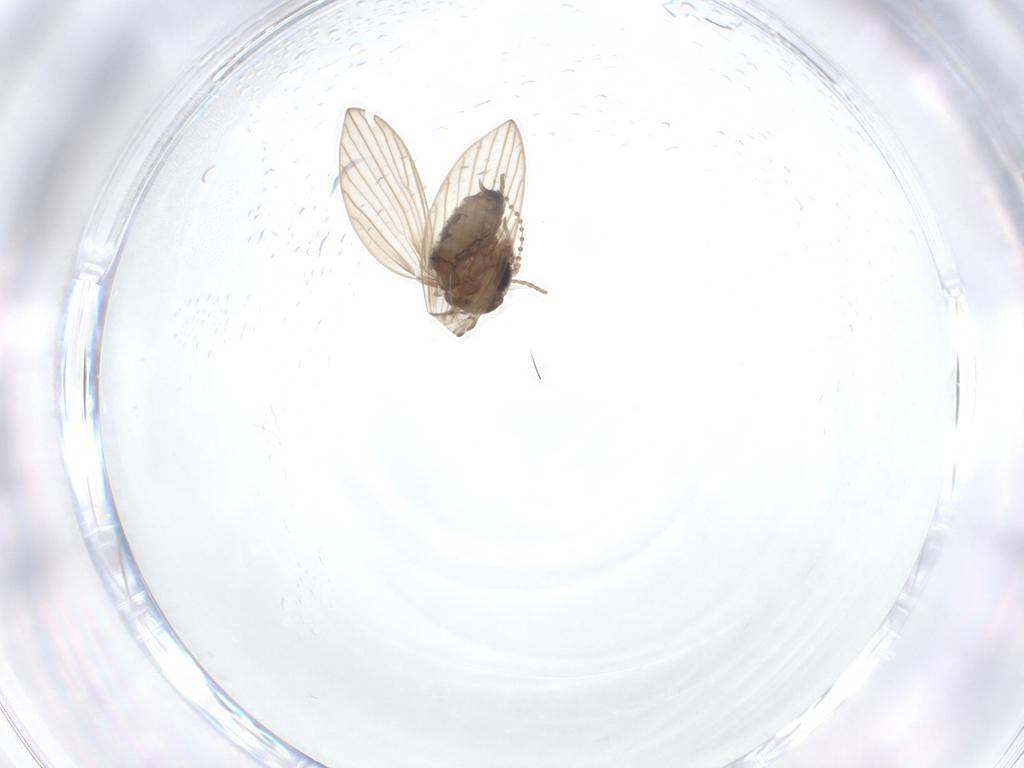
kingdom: Animalia
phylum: Arthropoda
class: Insecta
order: Diptera
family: Psychodidae
